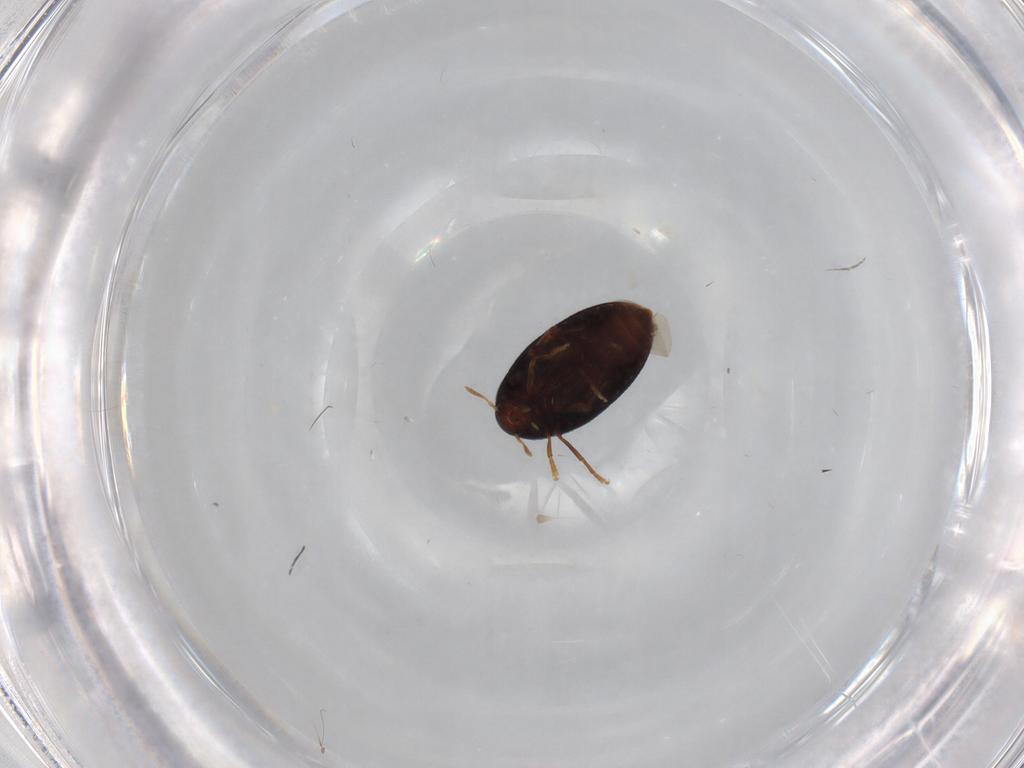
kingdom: Animalia
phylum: Arthropoda
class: Insecta
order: Coleoptera
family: Melandryidae
